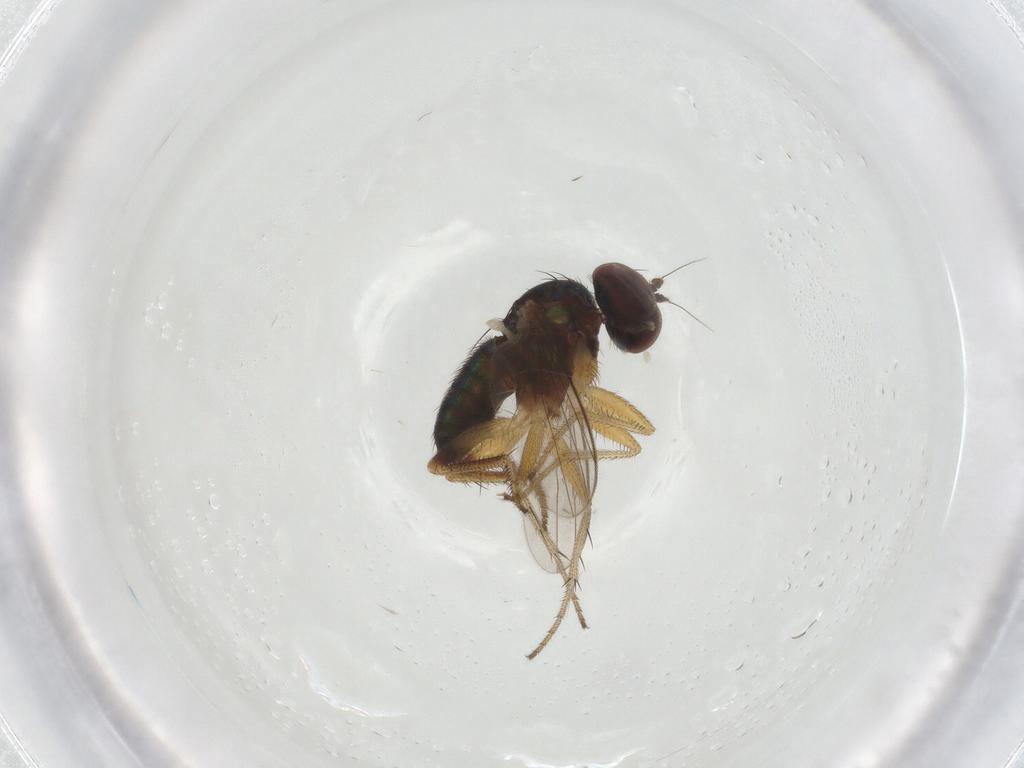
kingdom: Animalia
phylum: Arthropoda
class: Insecta
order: Diptera
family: Dolichopodidae
